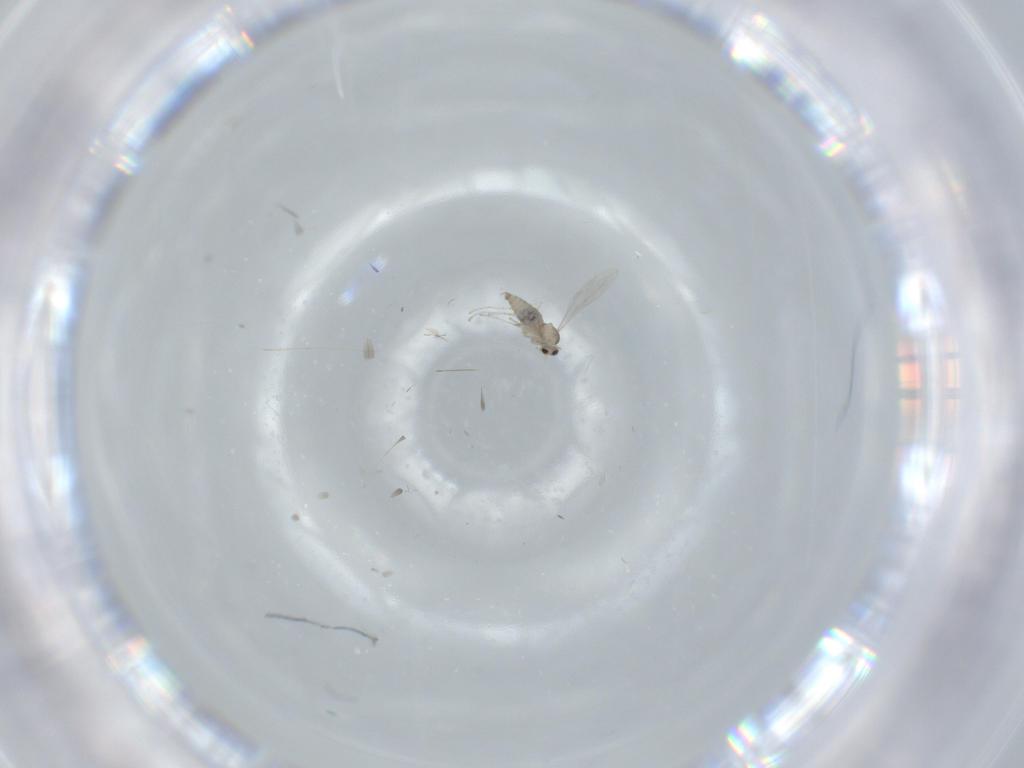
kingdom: Animalia
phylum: Arthropoda
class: Insecta
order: Diptera
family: Cecidomyiidae
